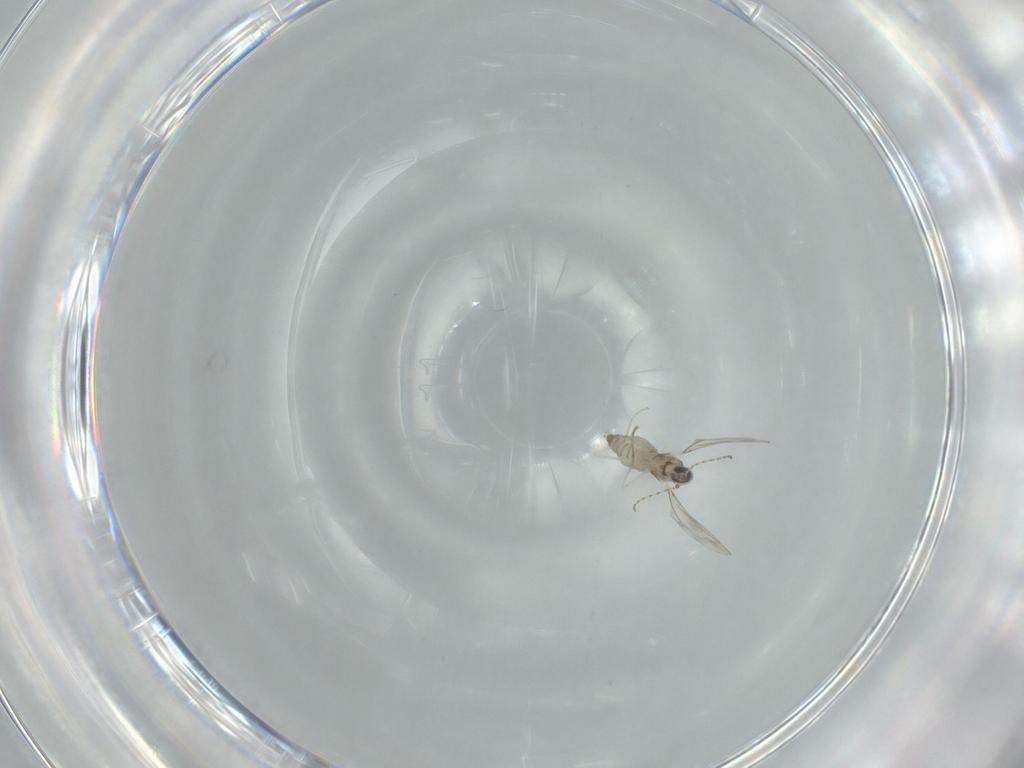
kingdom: Animalia
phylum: Arthropoda
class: Insecta
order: Diptera
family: Cecidomyiidae
